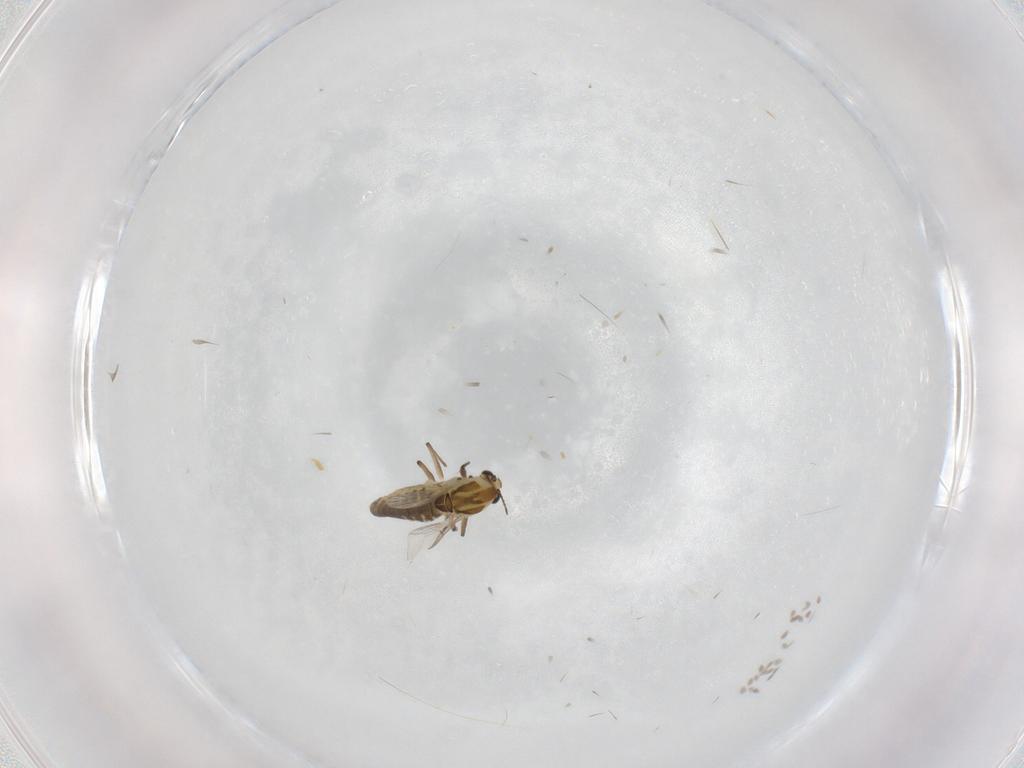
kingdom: Animalia
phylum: Arthropoda
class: Insecta
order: Diptera
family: Chironomidae
